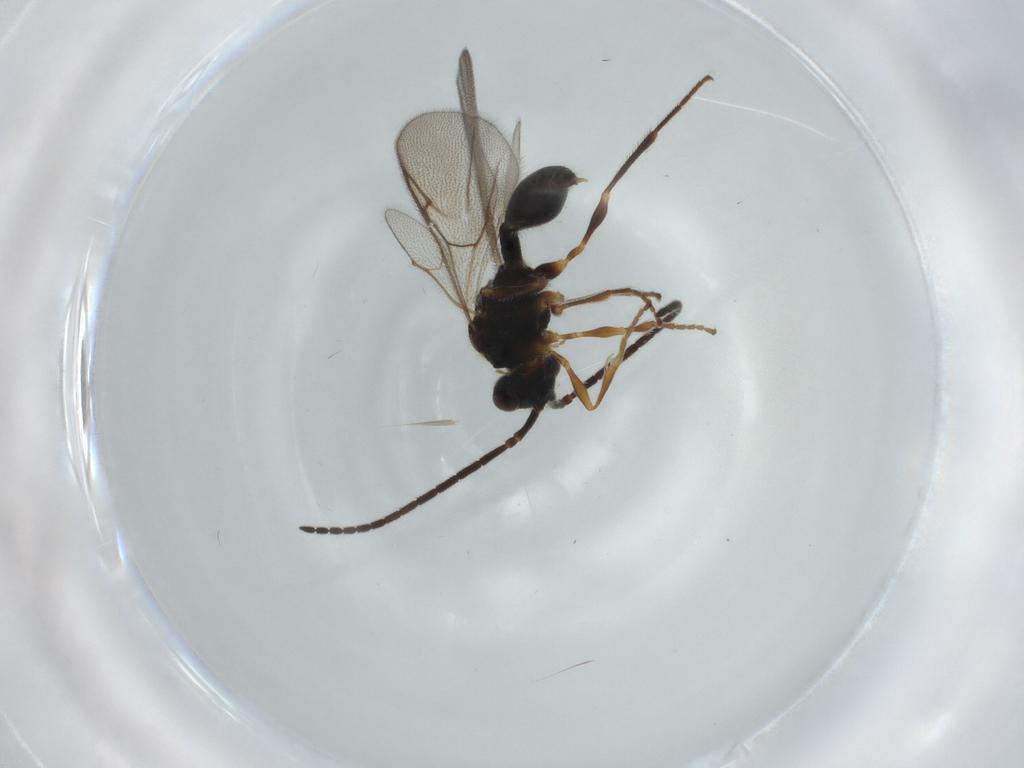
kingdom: Animalia
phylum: Arthropoda
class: Insecta
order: Hymenoptera
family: Diapriidae
